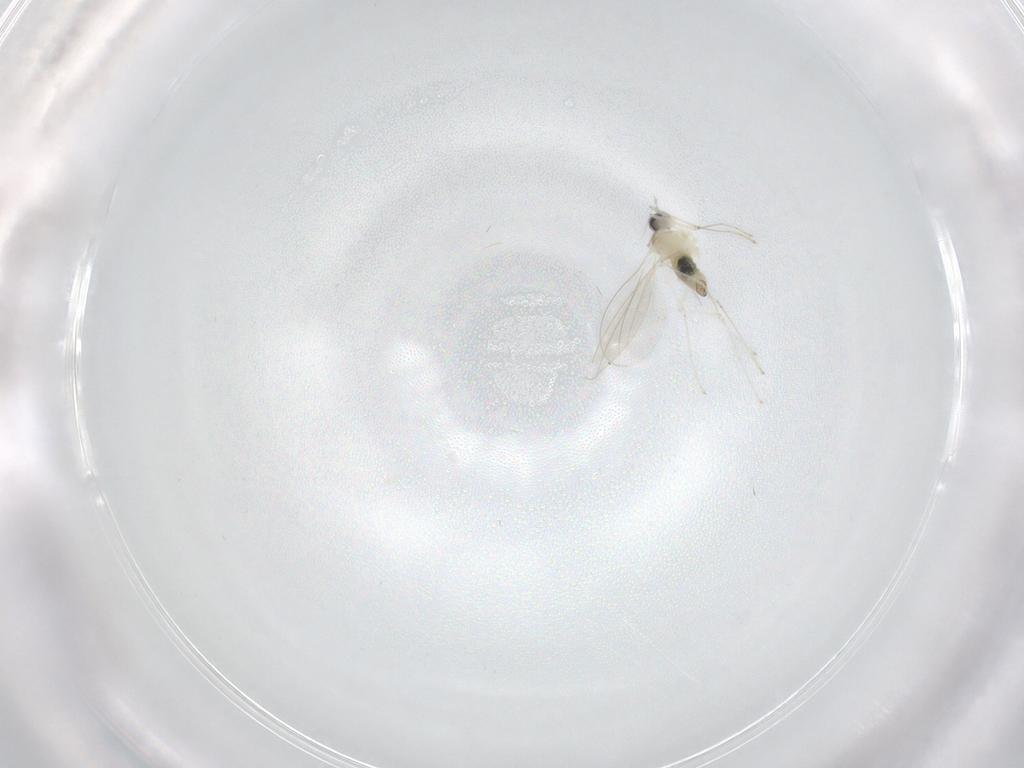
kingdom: Animalia
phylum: Arthropoda
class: Insecta
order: Diptera
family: Cecidomyiidae
